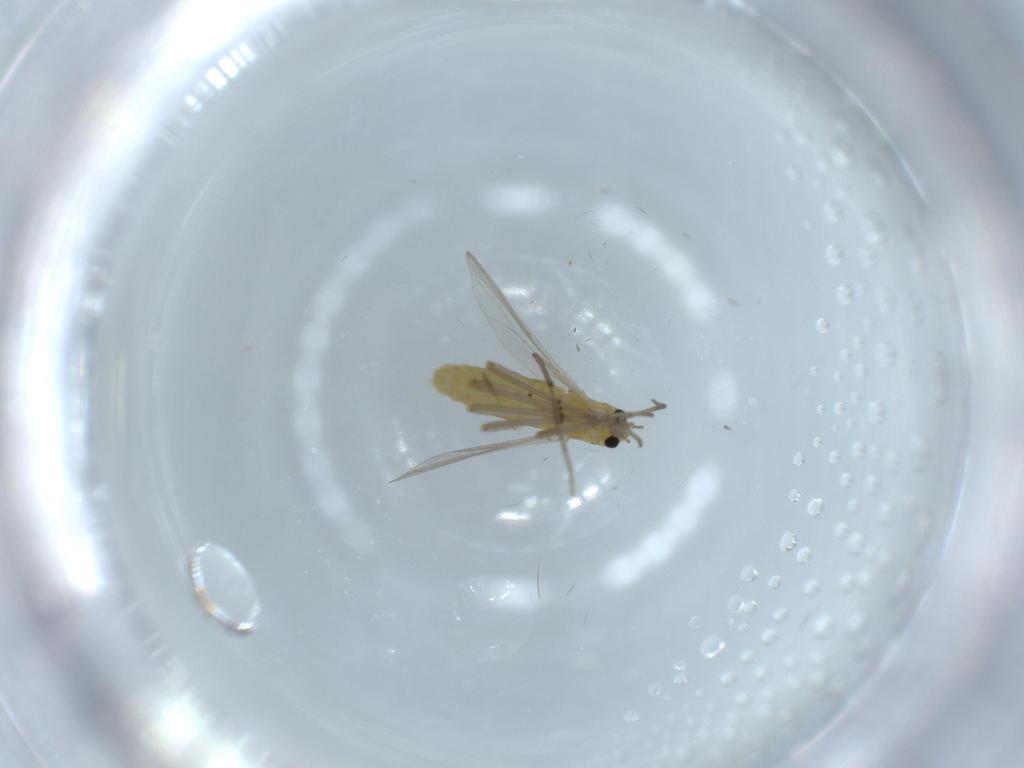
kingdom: Animalia
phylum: Arthropoda
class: Insecta
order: Diptera
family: Chironomidae
